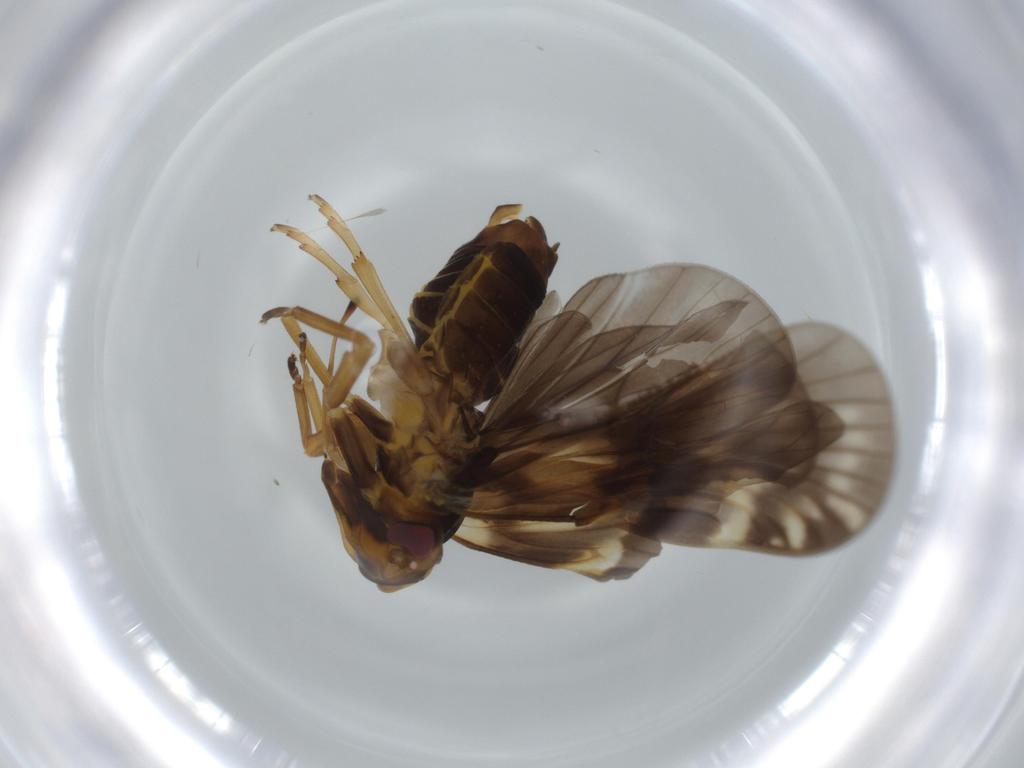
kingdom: Animalia
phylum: Arthropoda
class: Insecta
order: Hemiptera
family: Cixiidae
